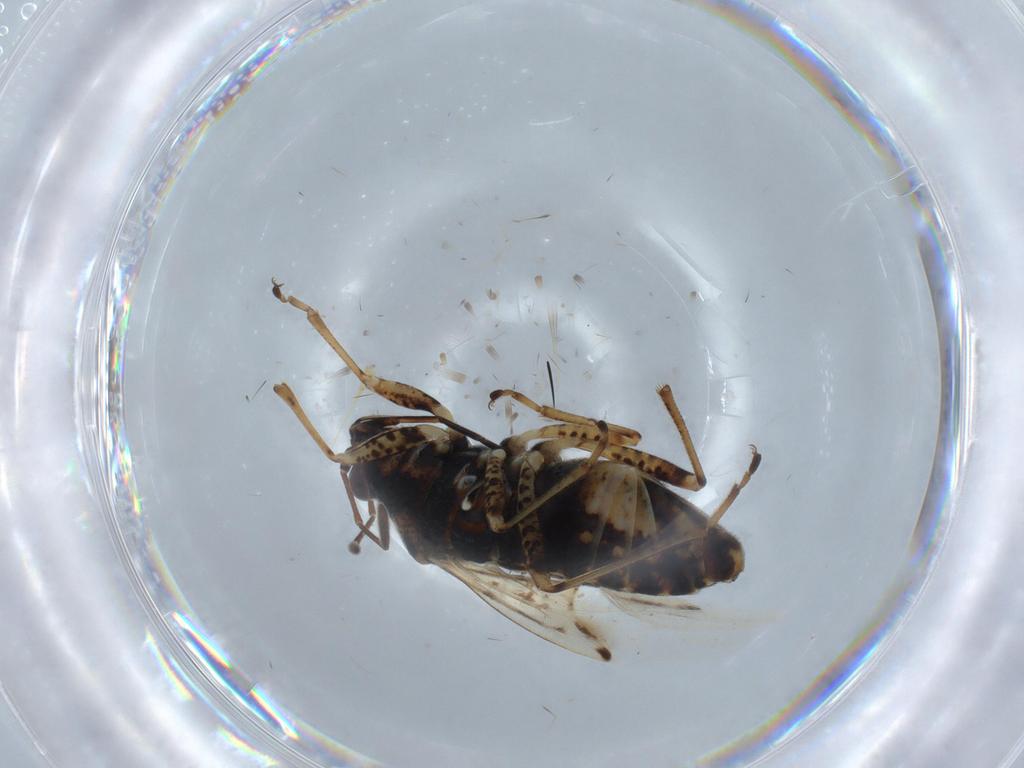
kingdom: Animalia
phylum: Arthropoda
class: Insecta
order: Hemiptera
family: Lygaeidae
